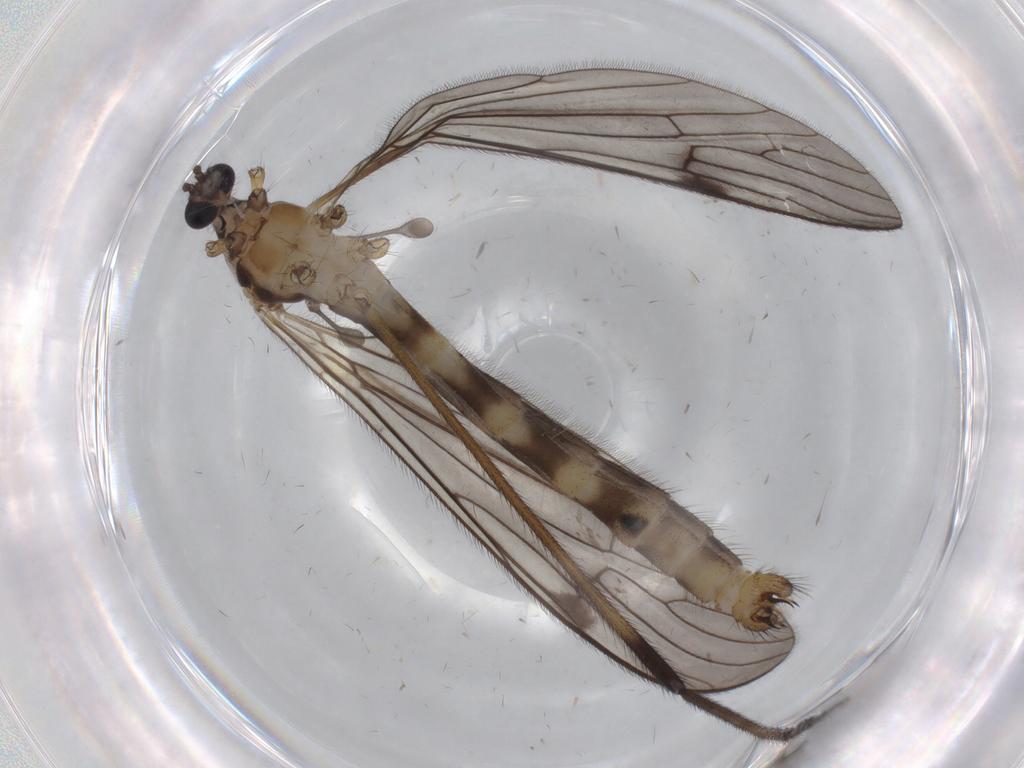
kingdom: Animalia
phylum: Arthropoda
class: Insecta
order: Diptera
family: Limoniidae
